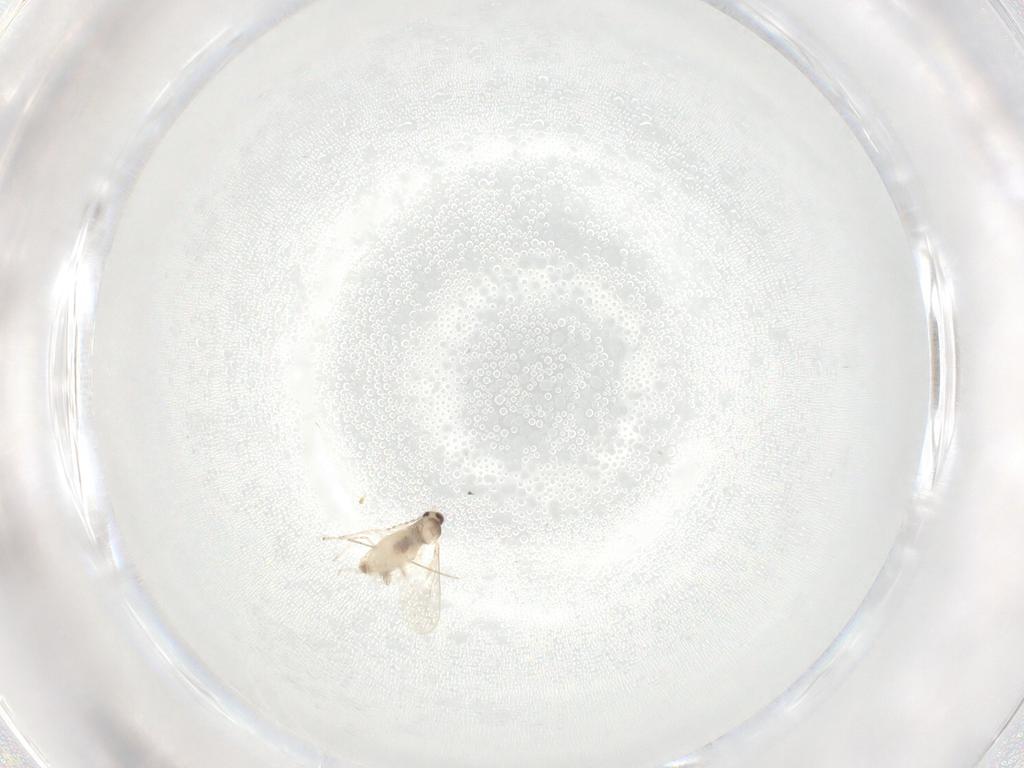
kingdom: Animalia
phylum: Arthropoda
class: Insecta
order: Diptera
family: Cecidomyiidae
